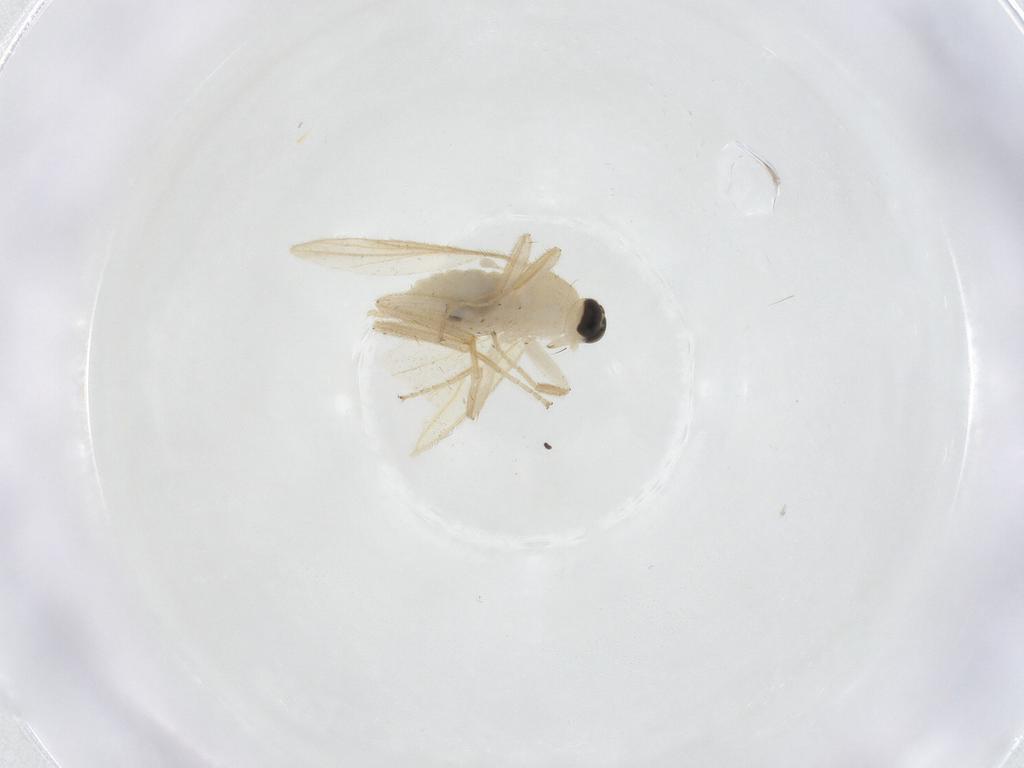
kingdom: Animalia
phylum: Arthropoda
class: Insecta
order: Diptera
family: Hybotidae
